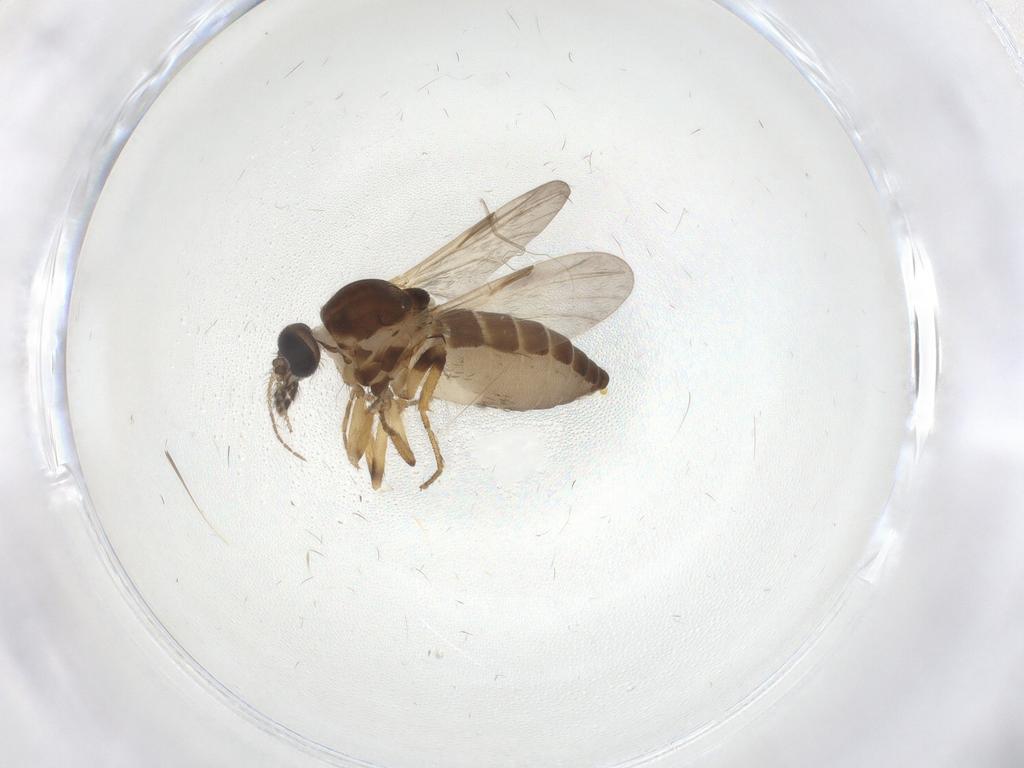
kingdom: Animalia
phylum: Arthropoda
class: Insecta
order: Diptera
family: Ceratopogonidae
